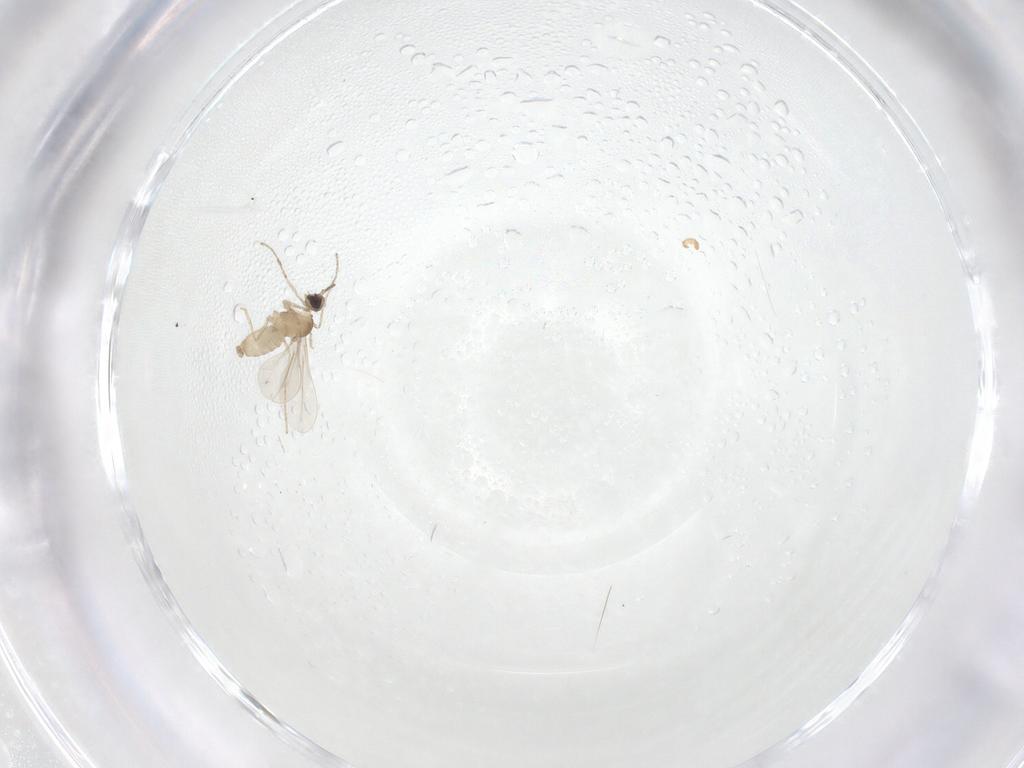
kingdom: Animalia
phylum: Arthropoda
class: Insecta
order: Diptera
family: Cecidomyiidae
